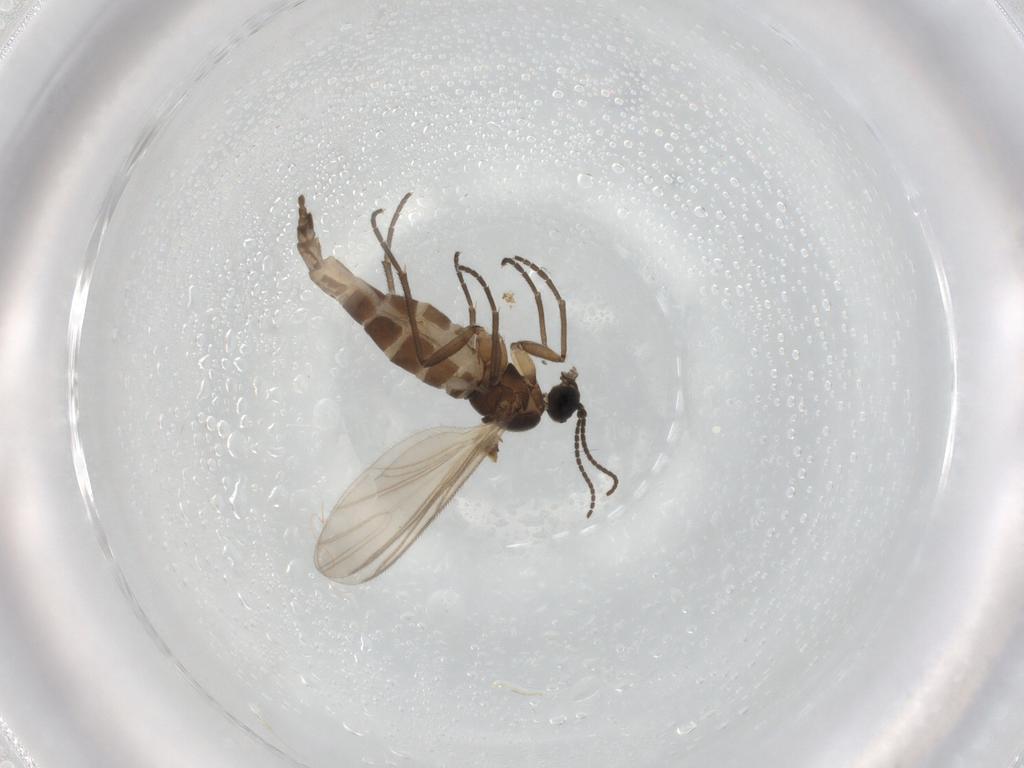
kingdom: Animalia
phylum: Arthropoda
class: Insecta
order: Diptera
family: Sciaridae
